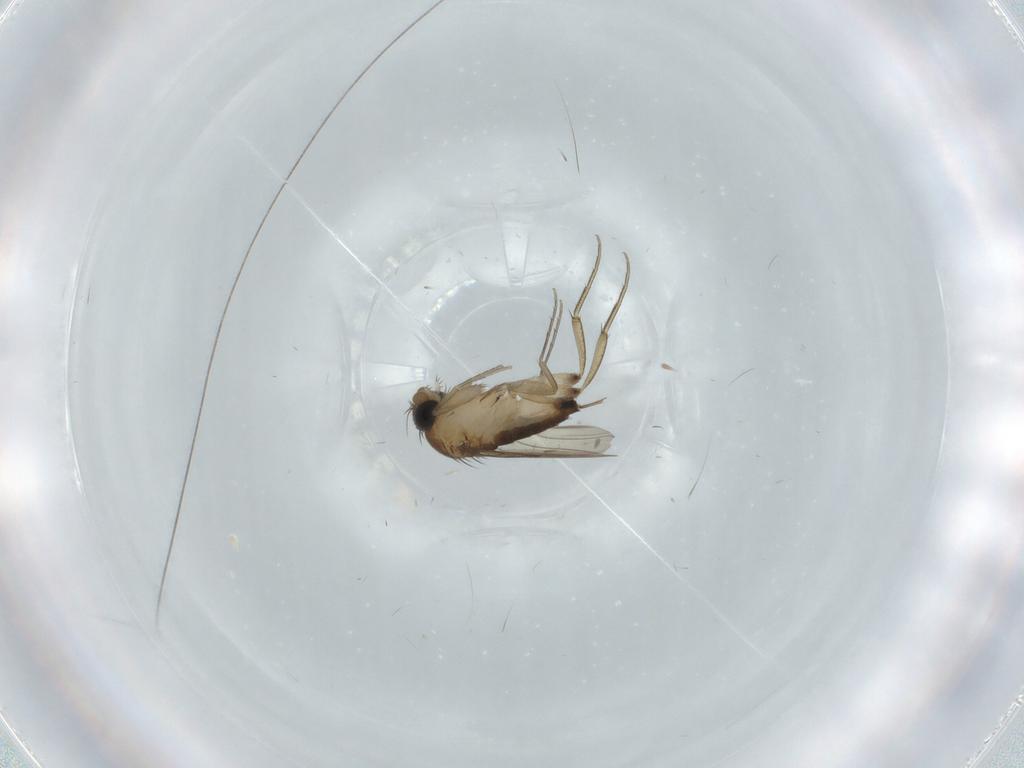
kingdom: Animalia
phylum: Arthropoda
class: Insecta
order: Diptera
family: Phoridae
